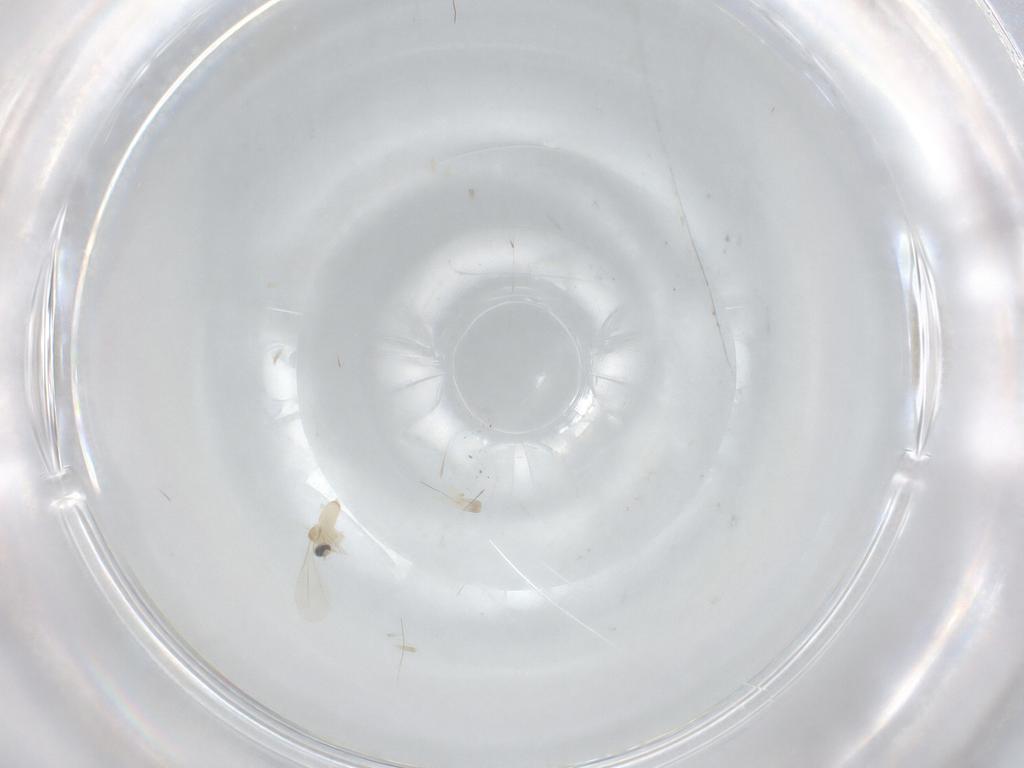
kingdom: Animalia
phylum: Arthropoda
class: Insecta
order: Diptera
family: Cecidomyiidae
